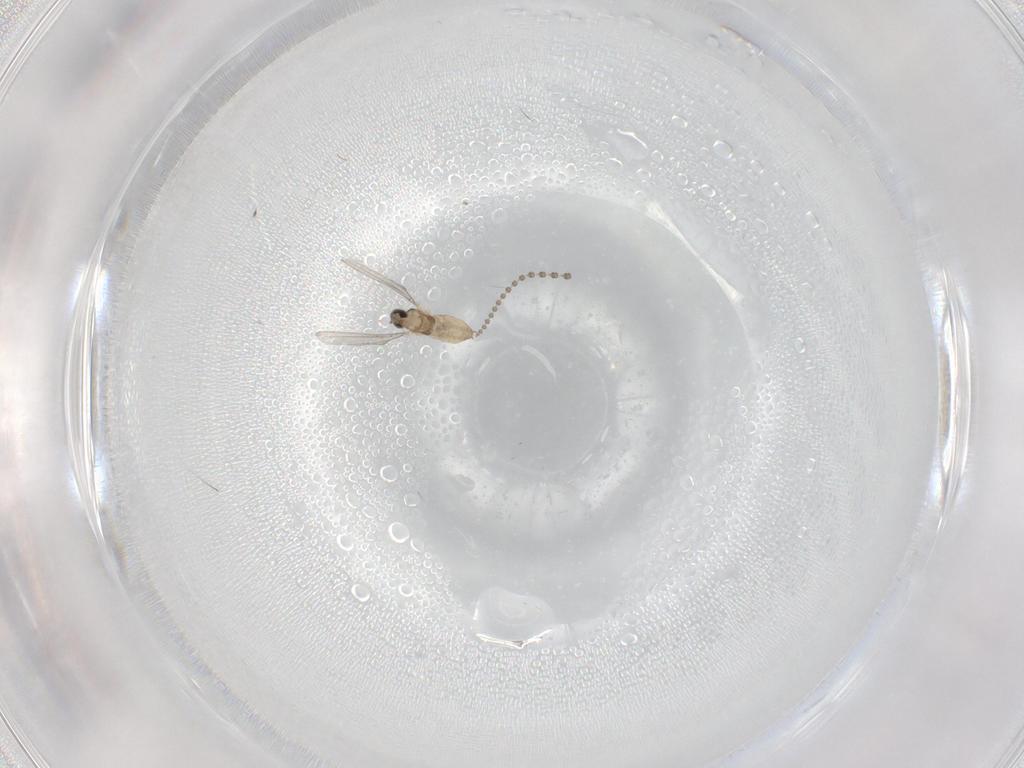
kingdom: Animalia
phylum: Arthropoda
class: Insecta
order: Diptera
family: Cecidomyiidae
